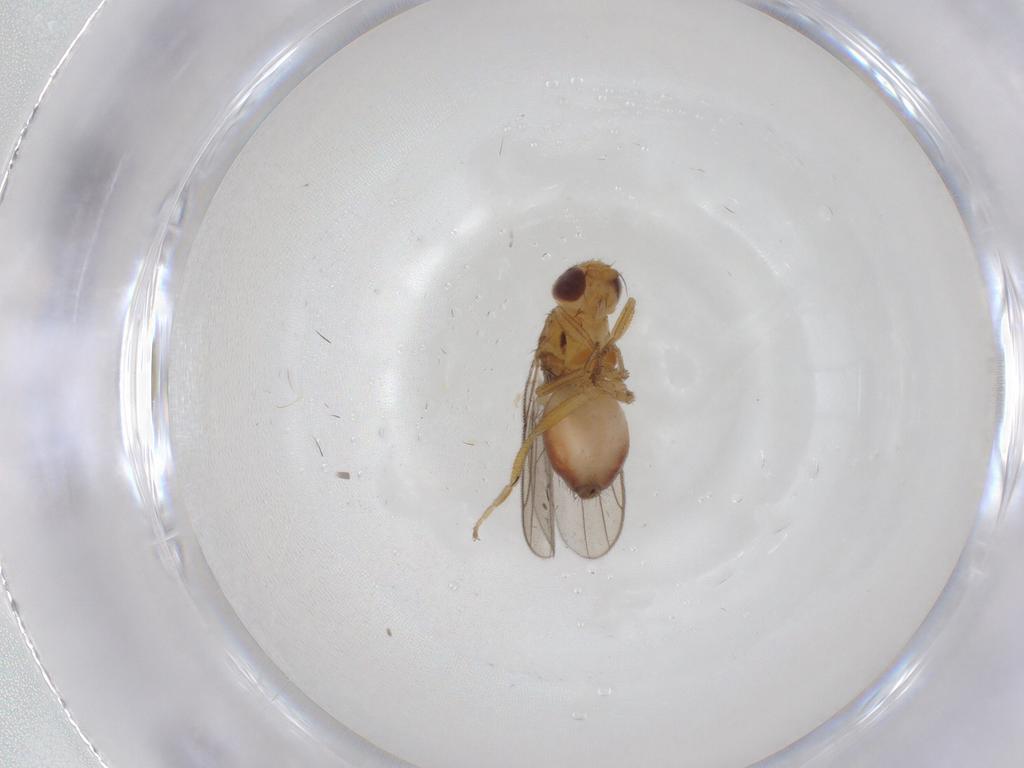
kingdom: Animalia
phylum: Arthropoda
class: Insecta
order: Diptera
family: Chloropidae
